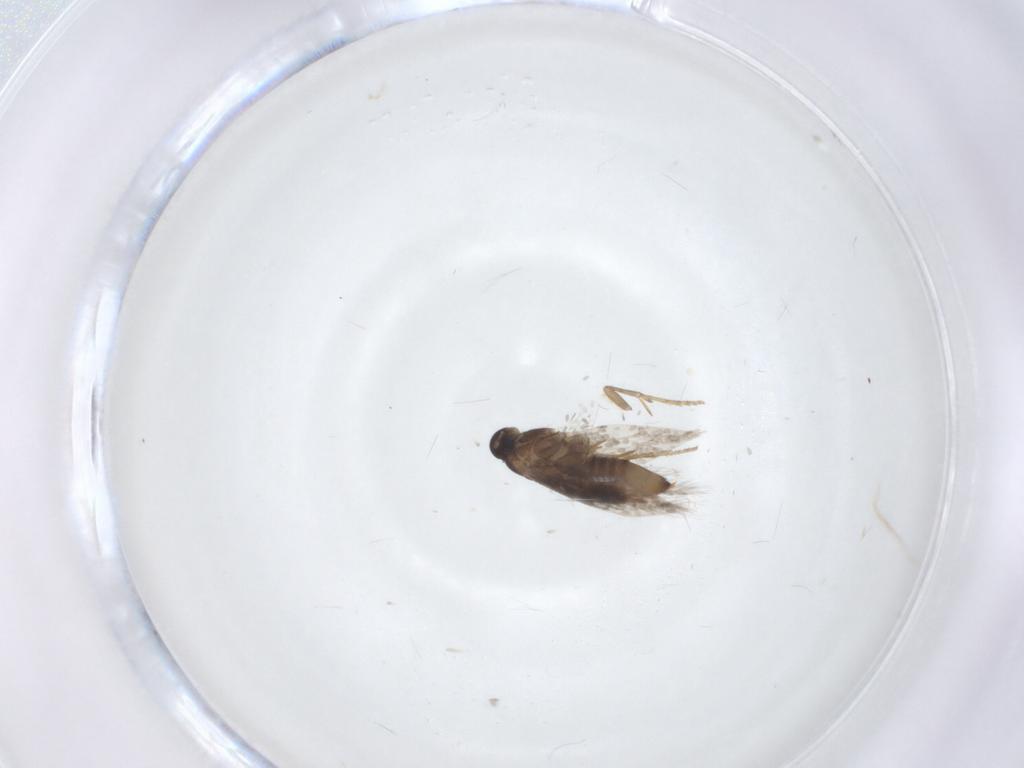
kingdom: Animalia
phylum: Arthropoda
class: Insecta
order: Lepidoptera
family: Heliozelidae
